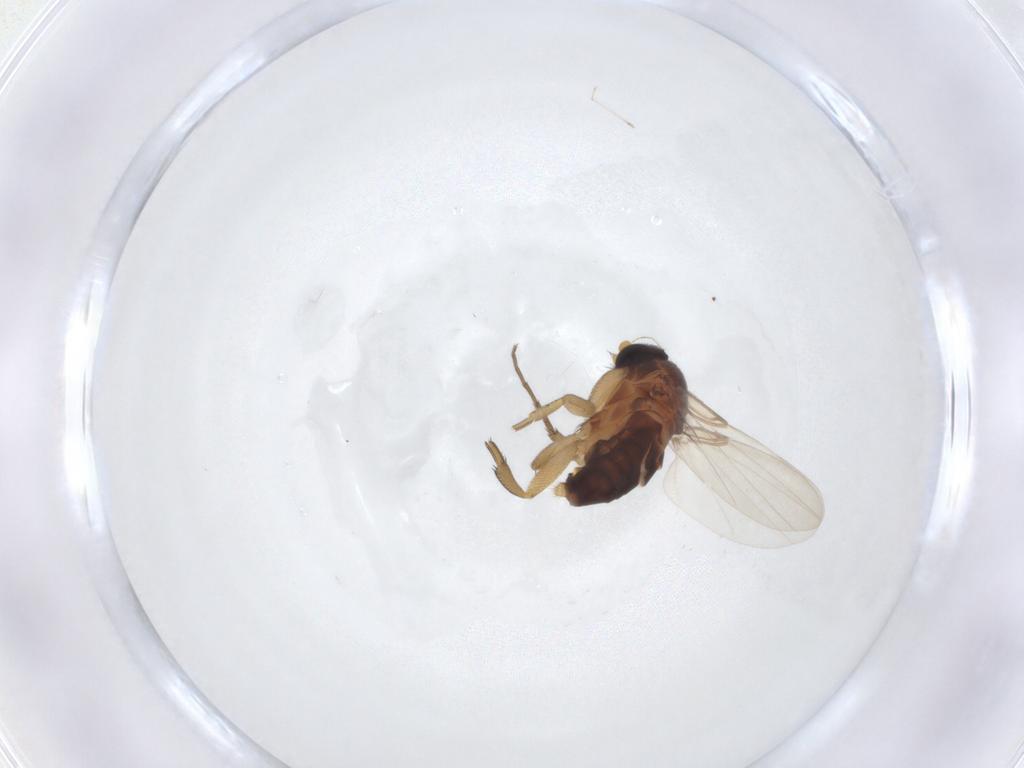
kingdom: Animalia
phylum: Arthropoda
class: Insecta
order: Diptera
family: Phoridae
